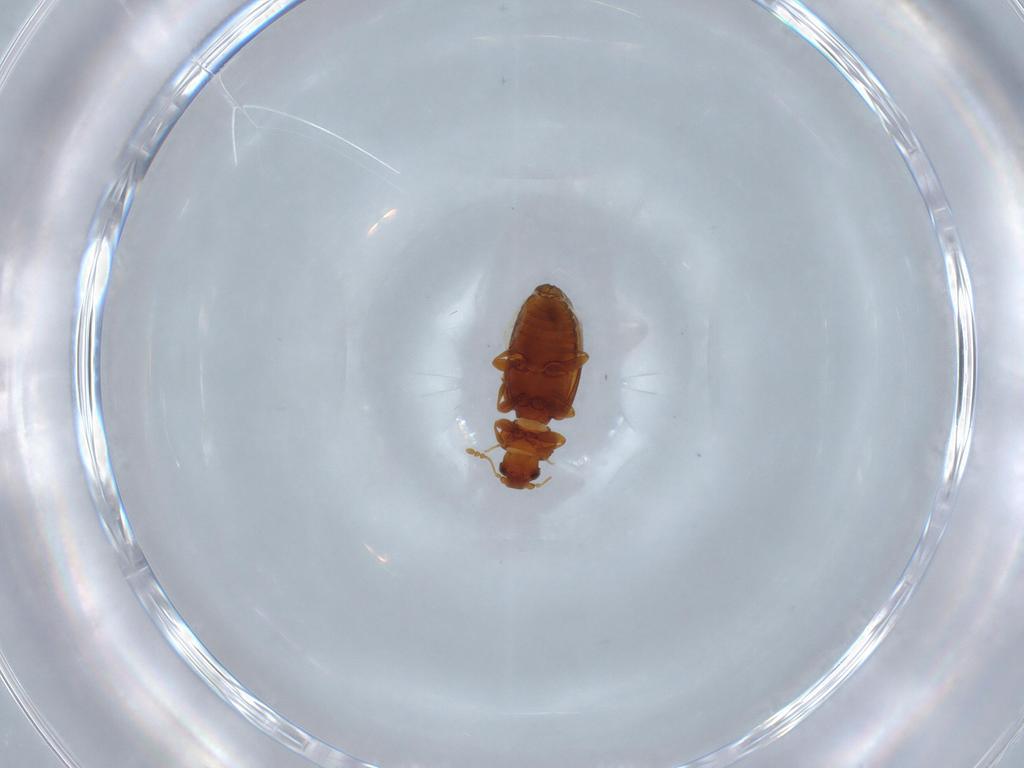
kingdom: Animalia
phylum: Arthropoda
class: Insecta
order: Coleoptera
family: Latridiidae
